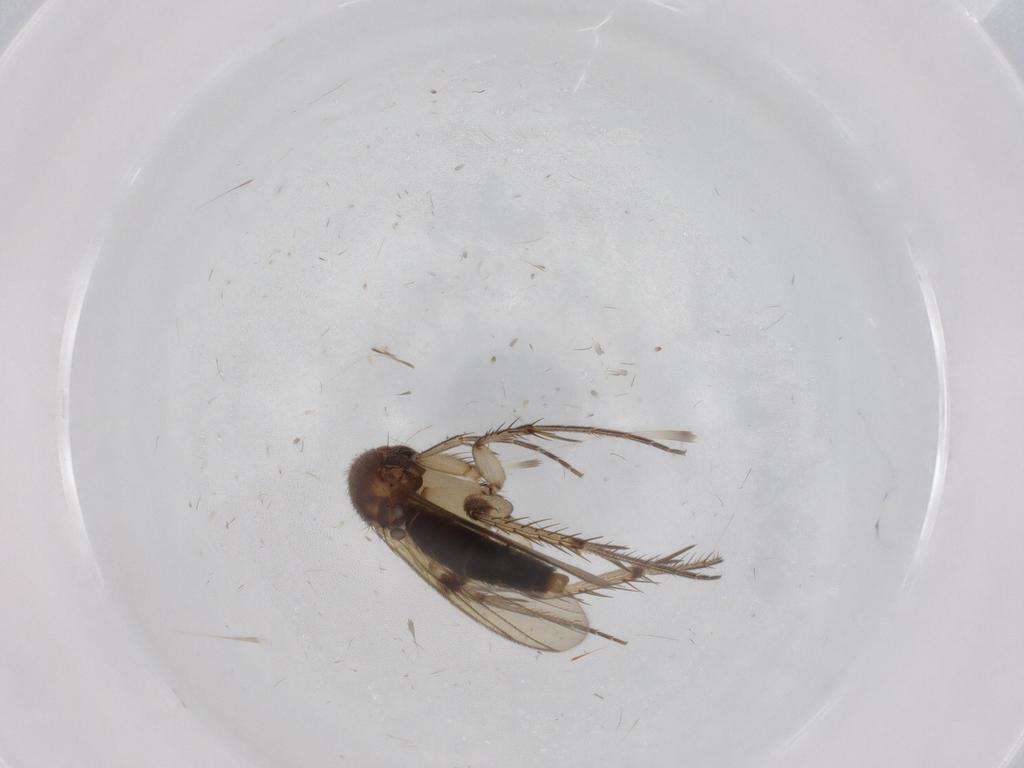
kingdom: Animalia
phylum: Arthropoda
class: Insecta
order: Diptera
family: Mycetophilidae
